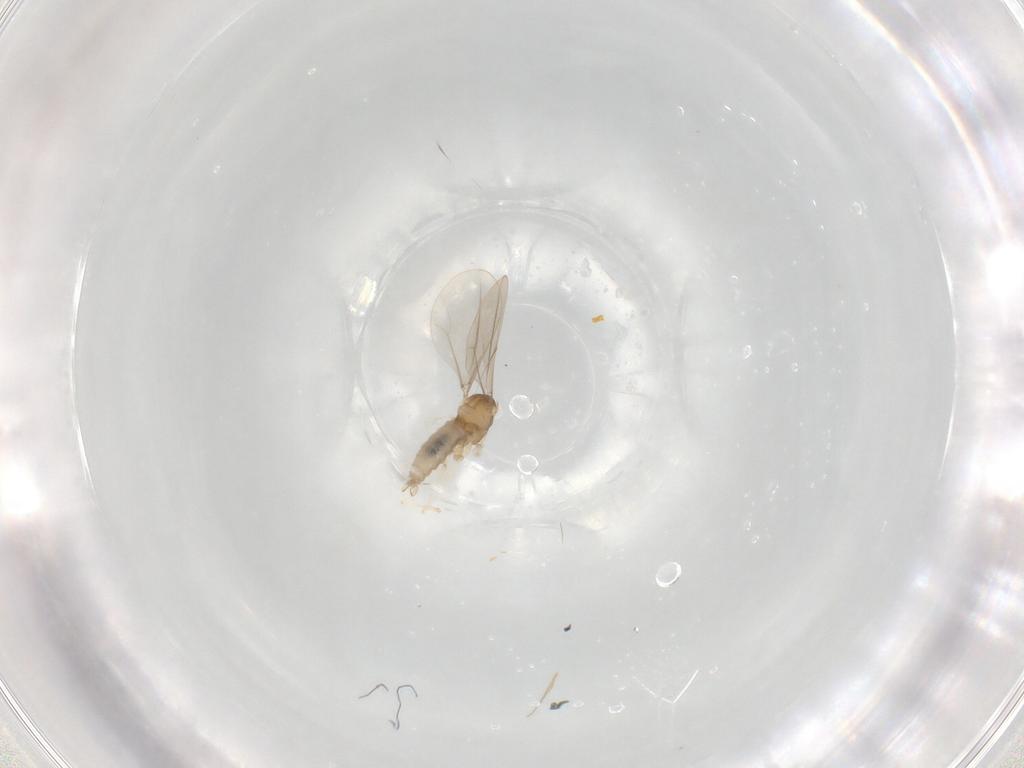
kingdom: Animalia
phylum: Arthropoda
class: Insecta
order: Diptera
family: Cecidomyiidae
